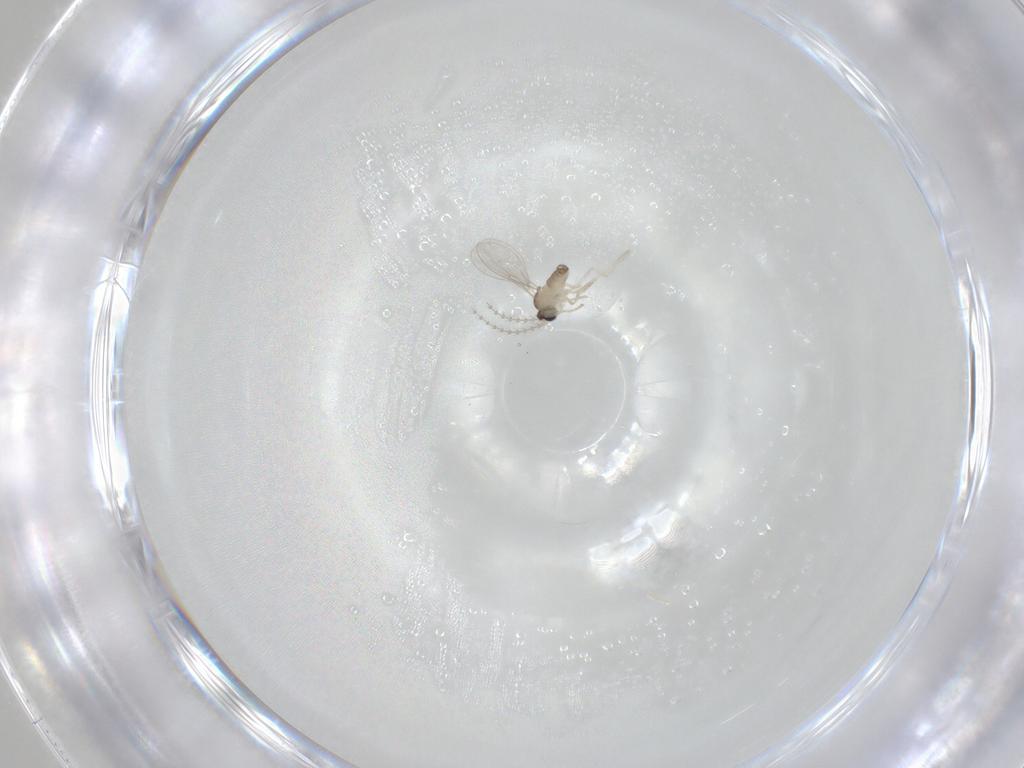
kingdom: Animalia
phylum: Arthropoda
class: Insecta
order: Diptera
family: Cecidomyiidae
